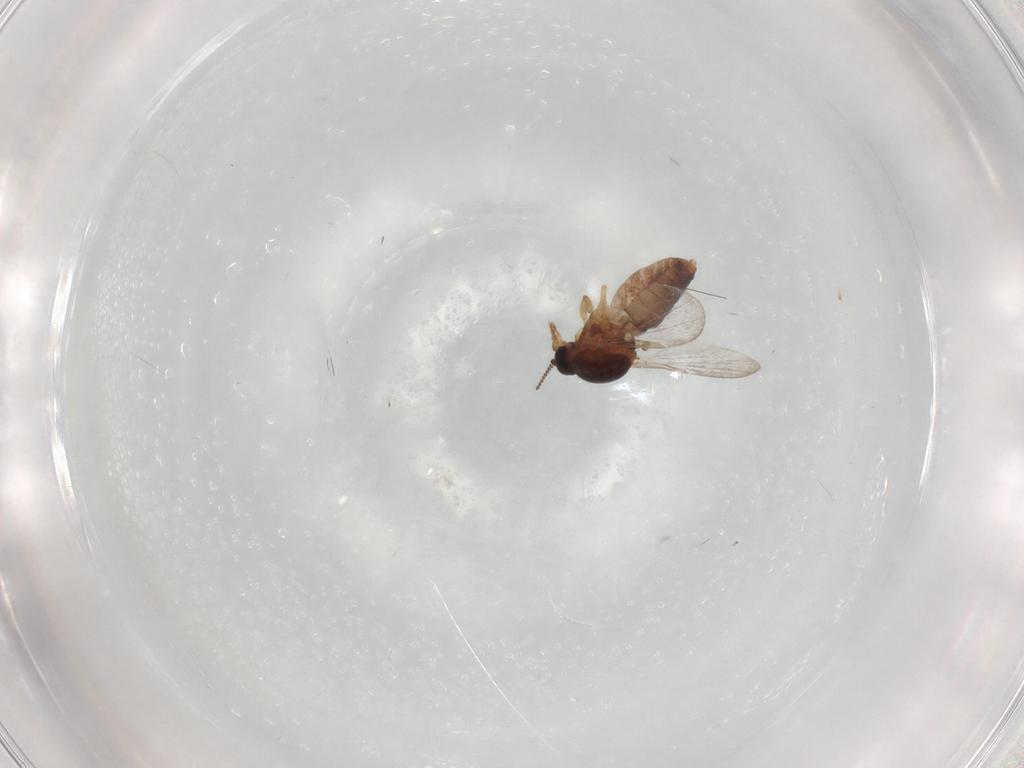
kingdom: Animalia
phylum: Arthropoda
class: Insecta
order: Diptera
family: Ceratopogonidae
